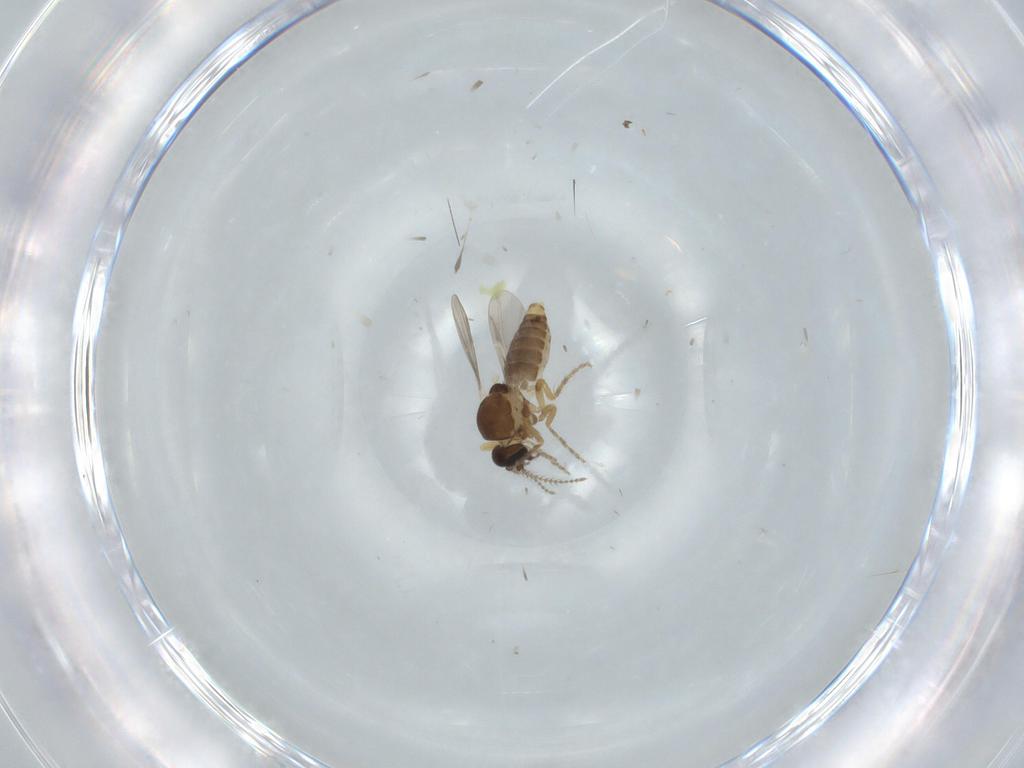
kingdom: Animalia
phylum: Arthropoda
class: Insecta
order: Diptera
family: Ceratopogonidae
